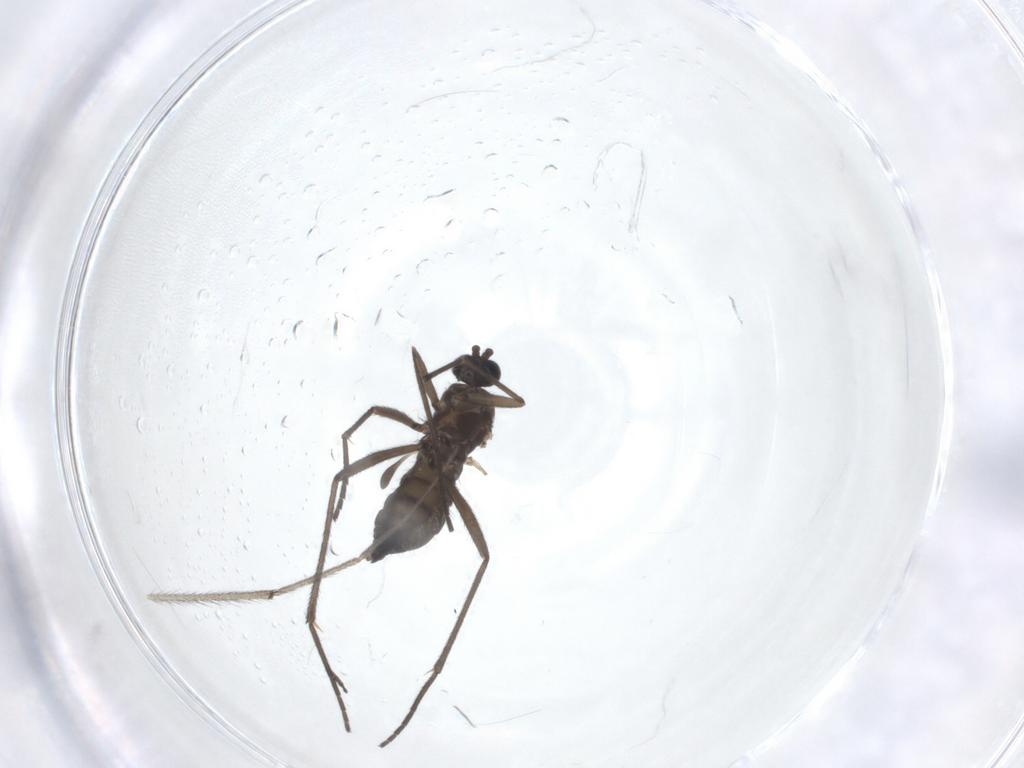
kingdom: Animalia
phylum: Arthropoda
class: Insecta
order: Diptera
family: Sciaridae
